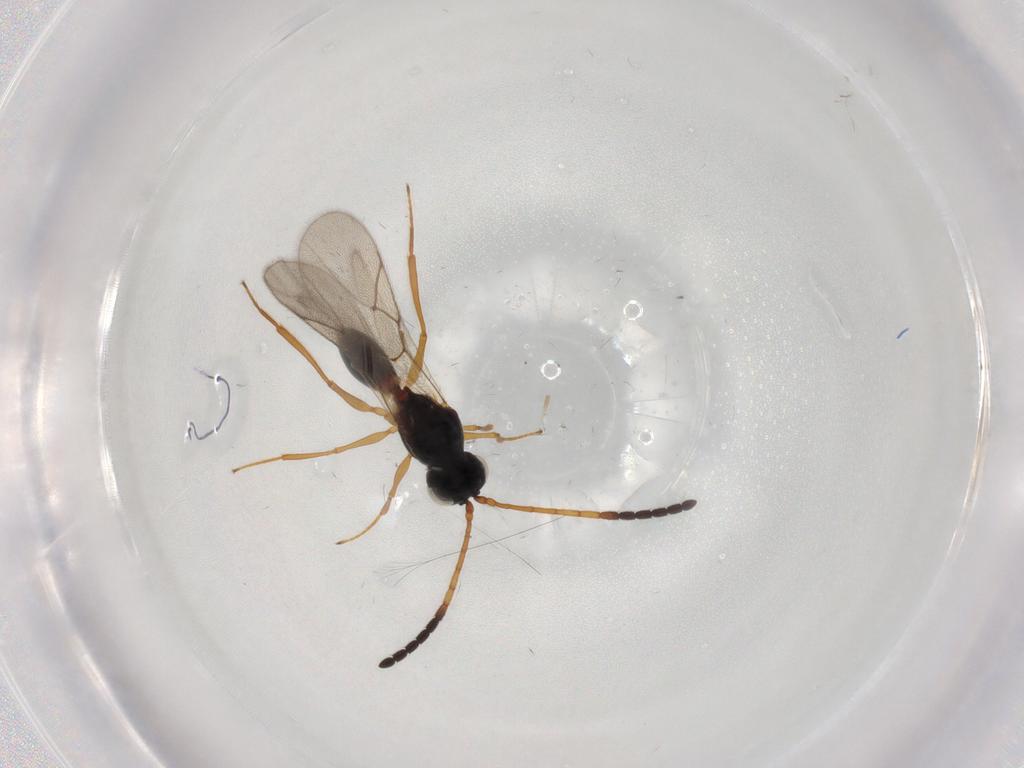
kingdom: Animalia
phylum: Arthropoda
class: Insecta
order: Hymenoptera
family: Figitidae
